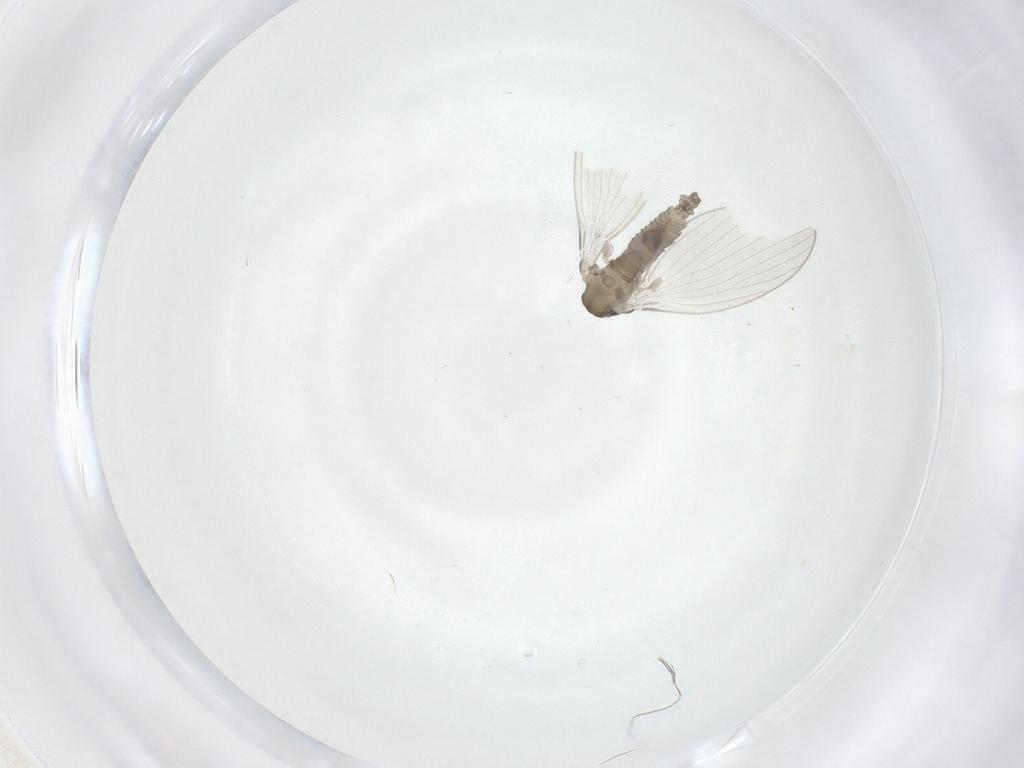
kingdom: Animalia
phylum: Arthropoda
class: Insecta
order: Diptera
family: Psychodidae
